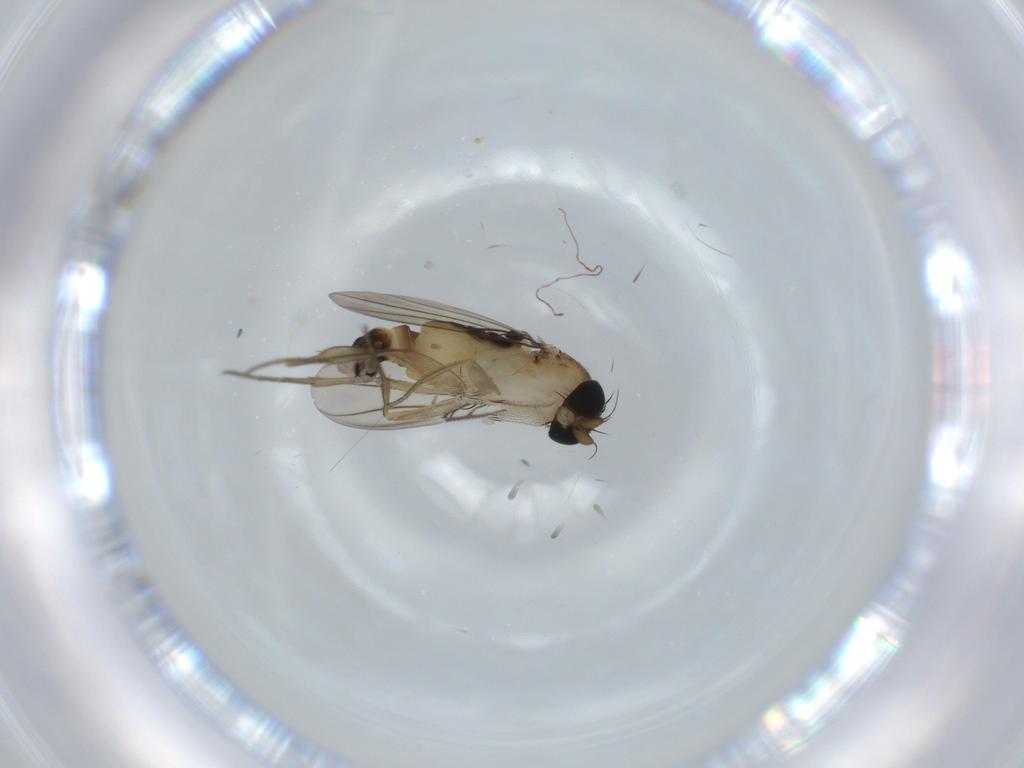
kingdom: Animalia
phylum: Arthropoda
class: Insecta
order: Diptera
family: Phoridae
